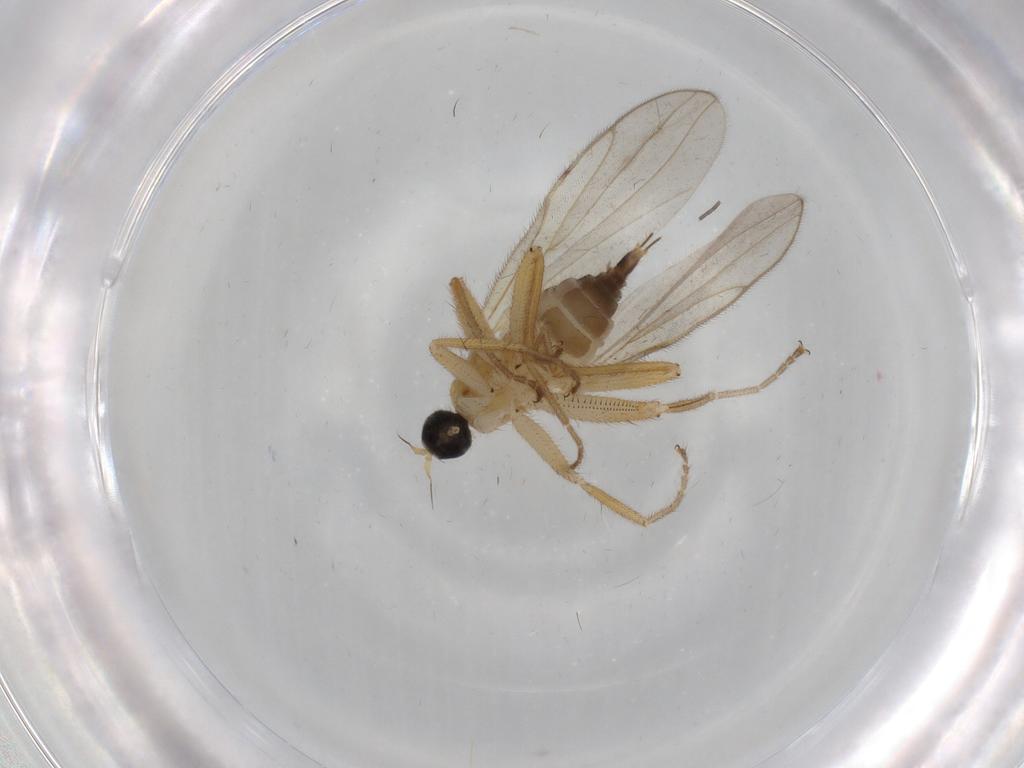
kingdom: Animalia
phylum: Arthropoda
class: Insecta
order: Diptera
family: Hybotidae
